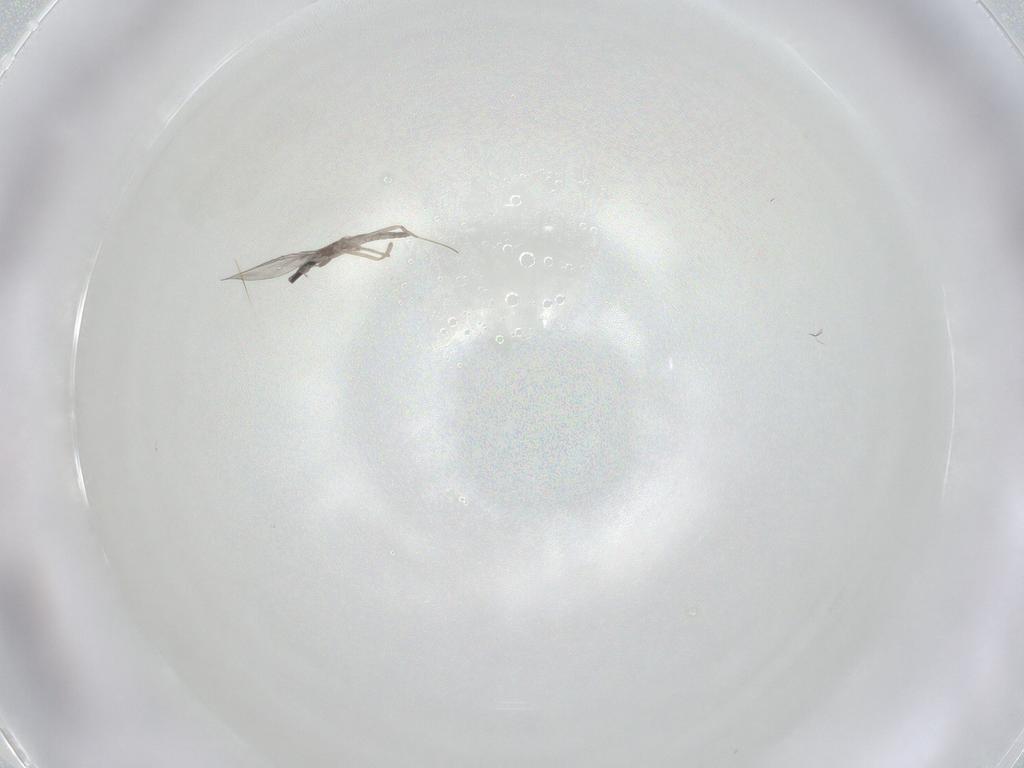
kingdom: Animalia
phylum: Arthropoda
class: Insecta
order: Diptera
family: Cecidomyiidae
